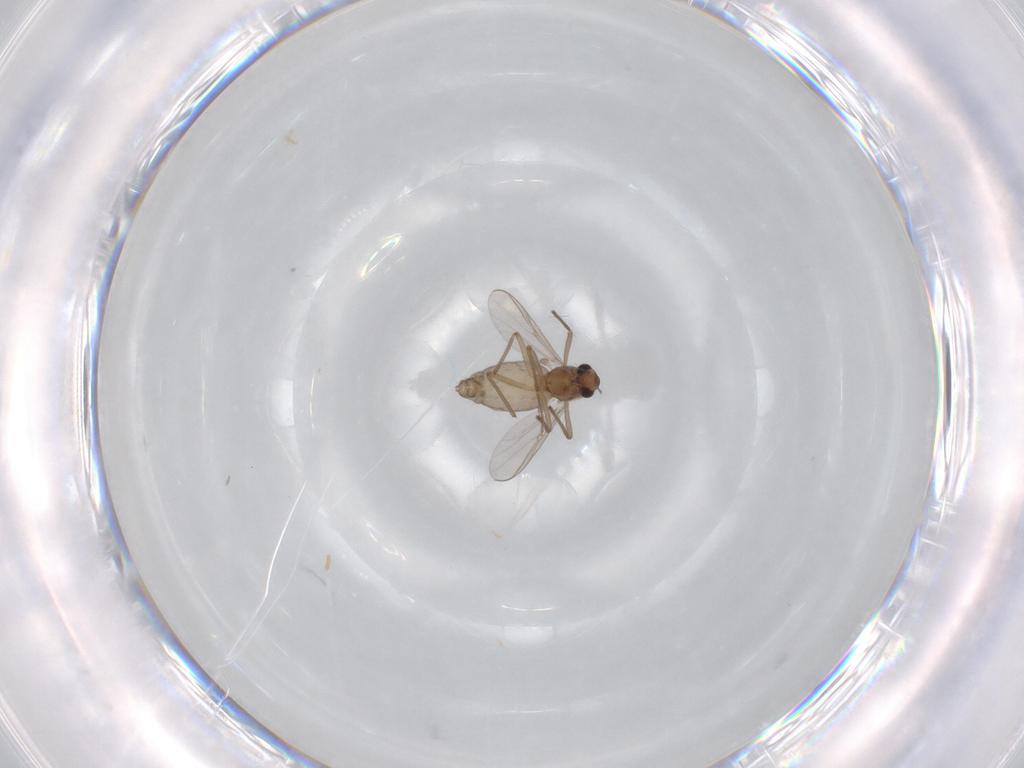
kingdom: Animalia
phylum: Arthropoda
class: Insecta
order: Diptera
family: Chironomidae
